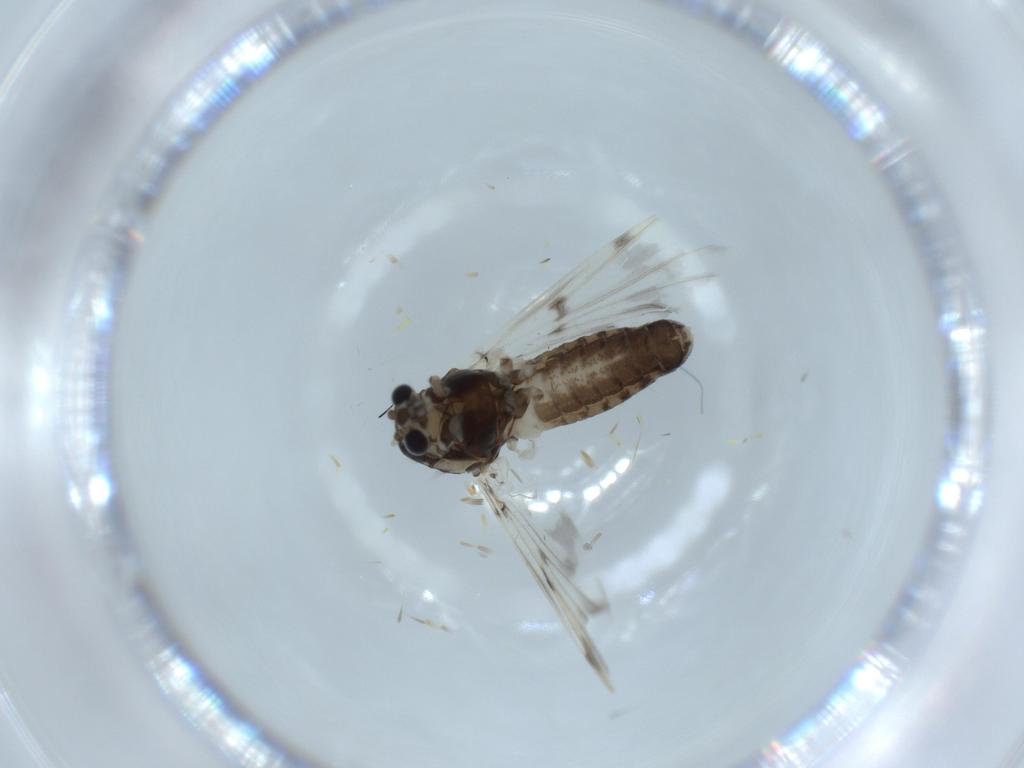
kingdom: Animalia
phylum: Arthropoda
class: Insecta
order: Diptera
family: Chironomidae
